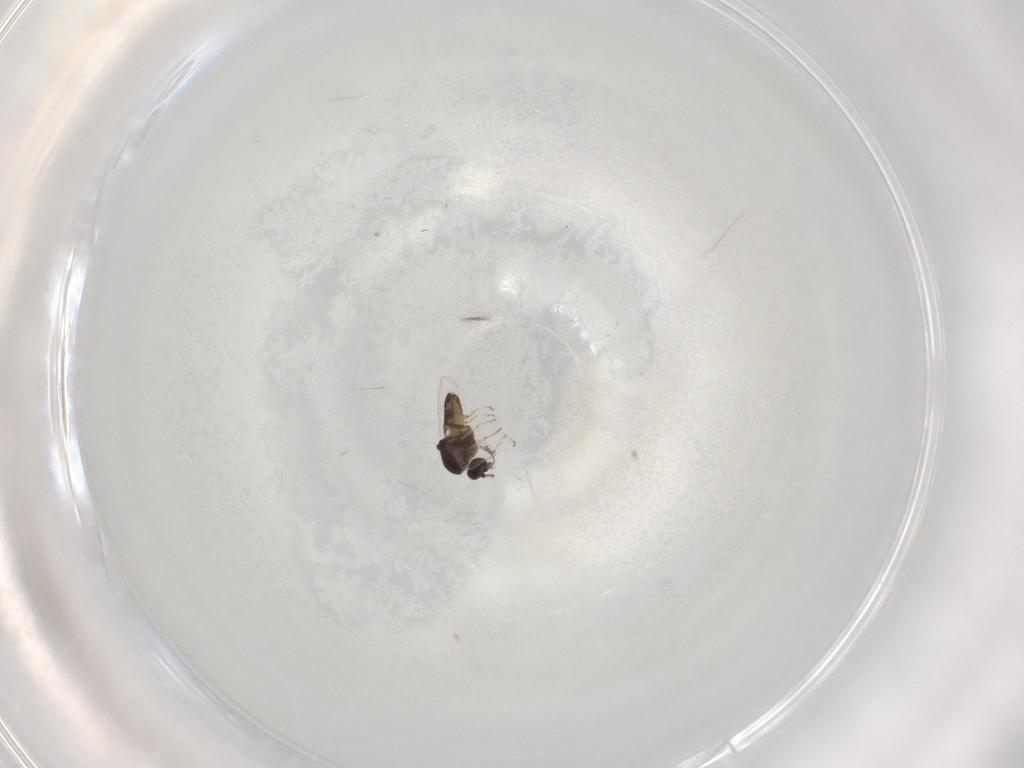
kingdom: Animalia
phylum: Arthropoda
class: Insecta
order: Diptera
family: Ceratopogonidae
